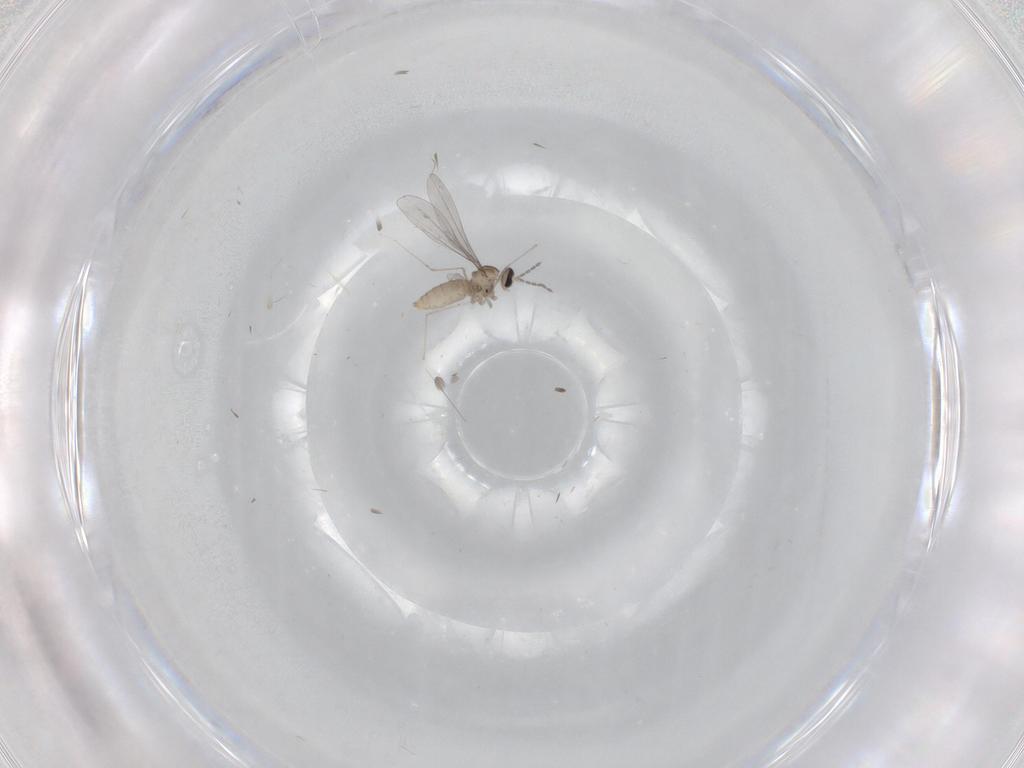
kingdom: Animalia
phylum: Arthropoda
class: Insecta
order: Diptera
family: Cecidomyiidae
